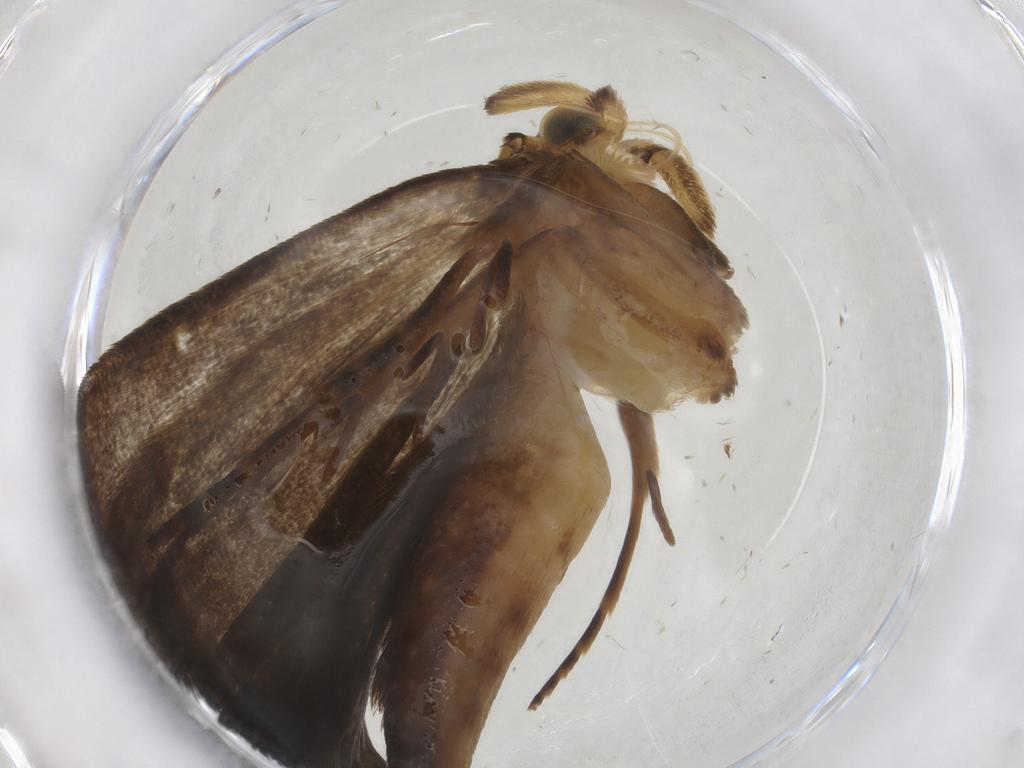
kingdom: Animalia
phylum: Arthropoda
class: Insecta
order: Lepidoptera
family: Immidae
